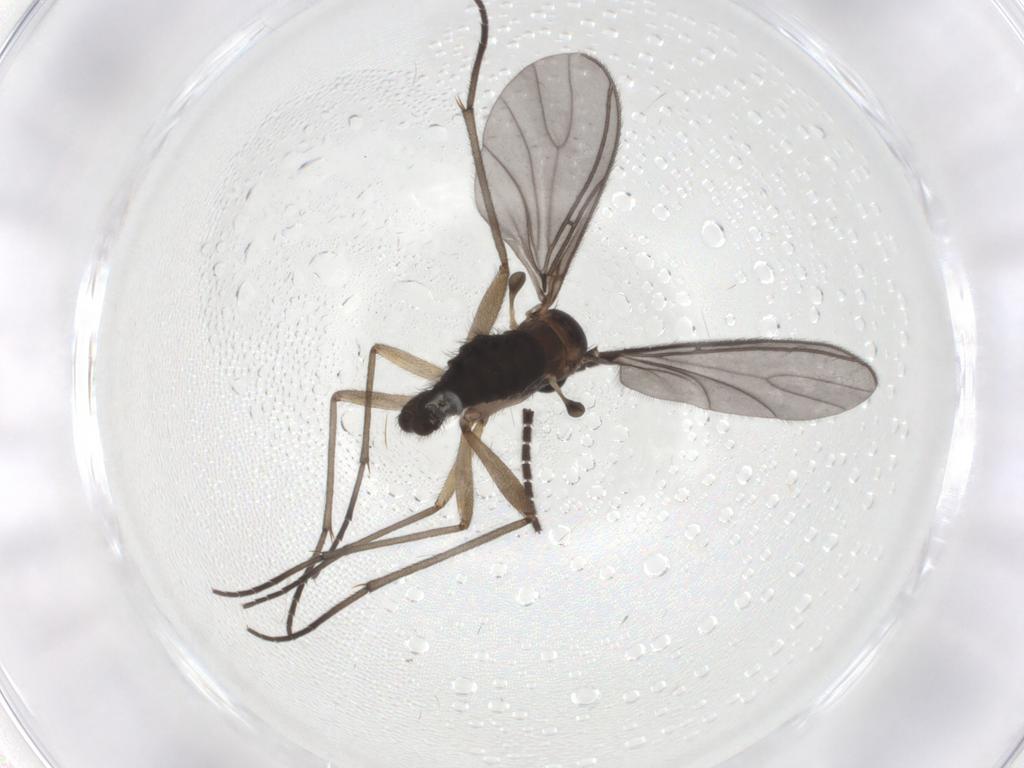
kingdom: Animalia
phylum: Arthropoda
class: Insecta
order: Diptera
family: Sciaridae
